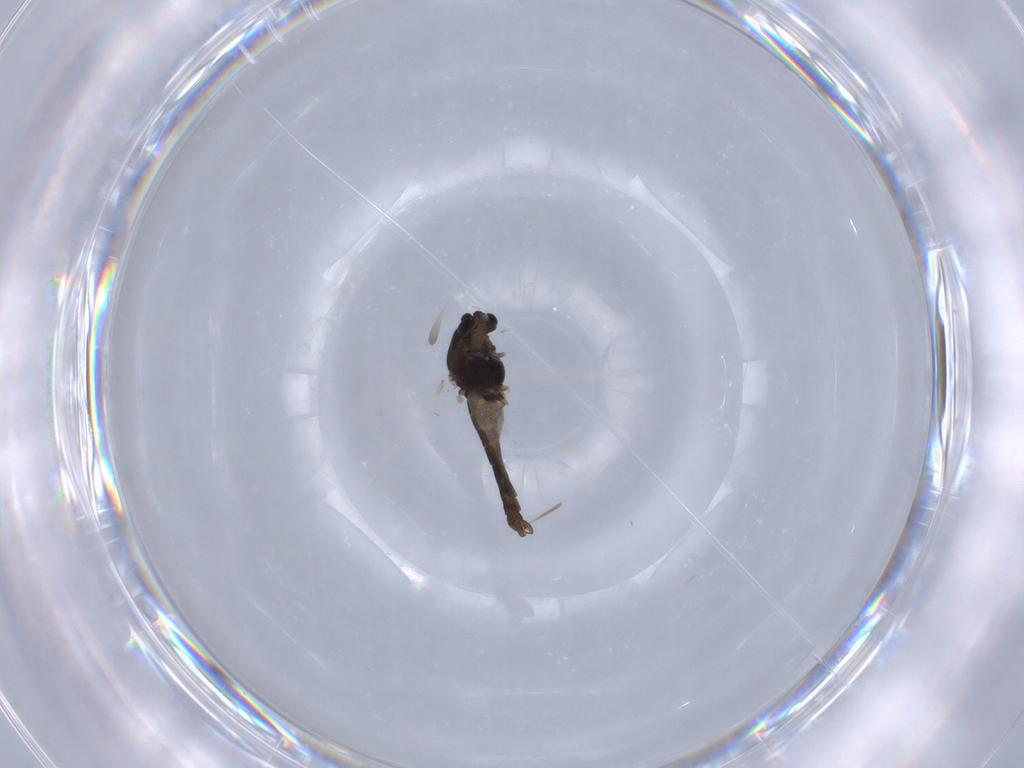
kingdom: Animalia
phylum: Arthropoda
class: Insecta
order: Diptera
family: Chironomidae
